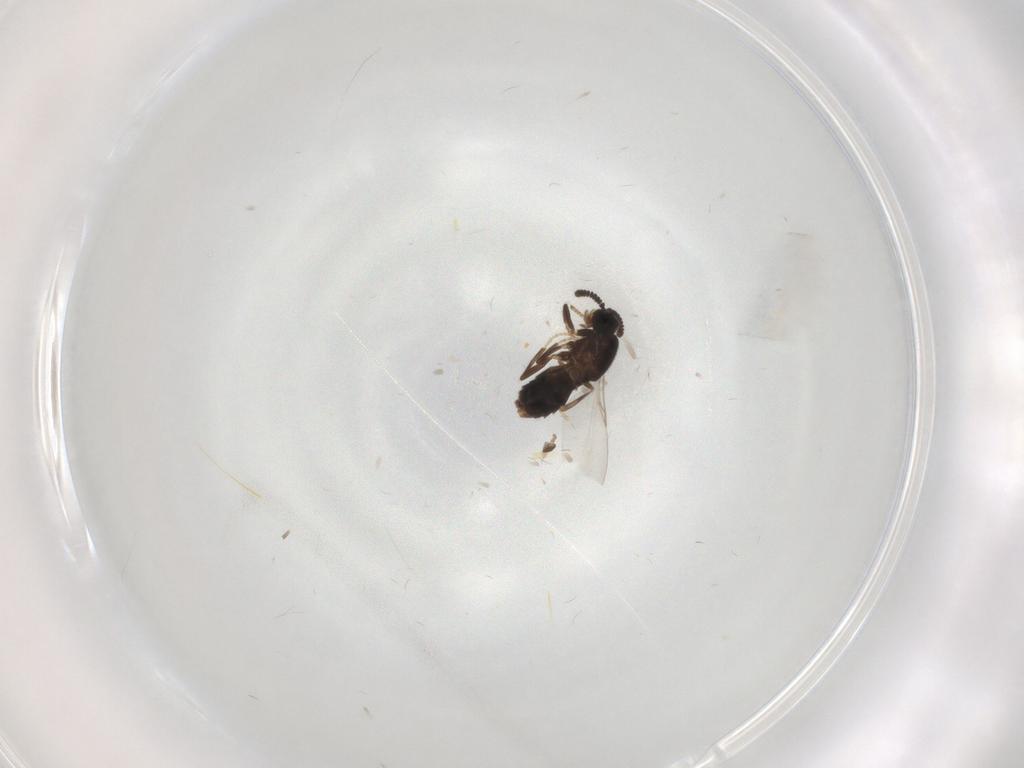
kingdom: Animalia
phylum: Arthropoda
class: Insecta
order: Diptera
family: Scatopsidae
